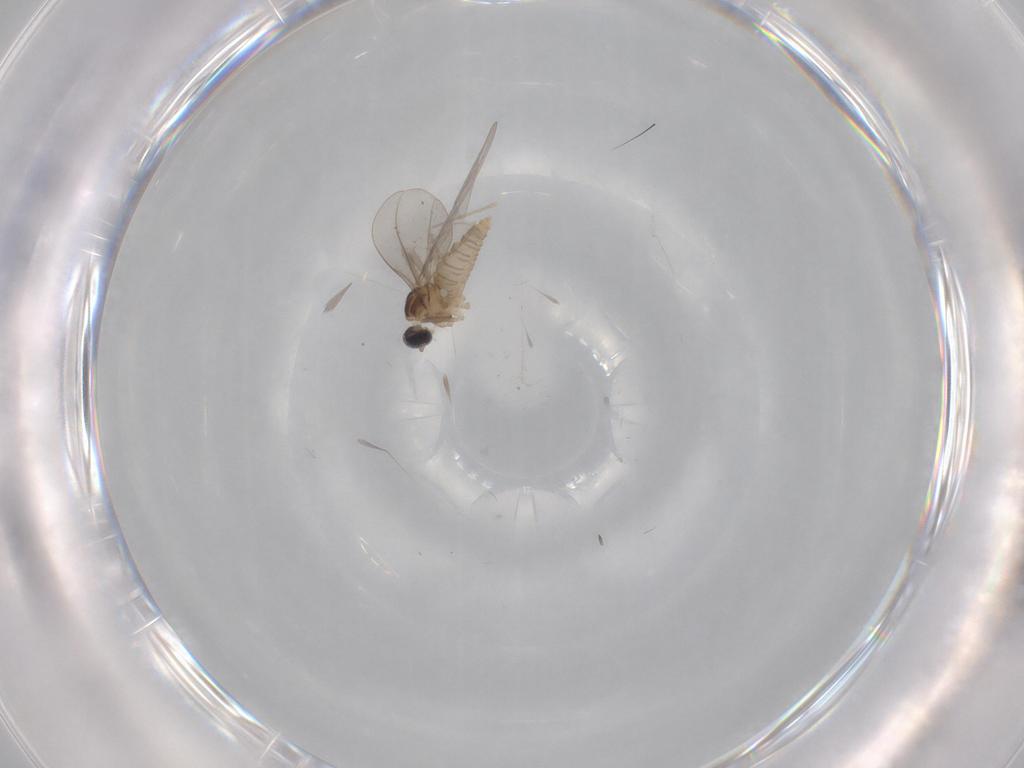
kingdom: Animalia
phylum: Arthropoda
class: Insecta
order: Diptera
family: Cecidomyiidae
